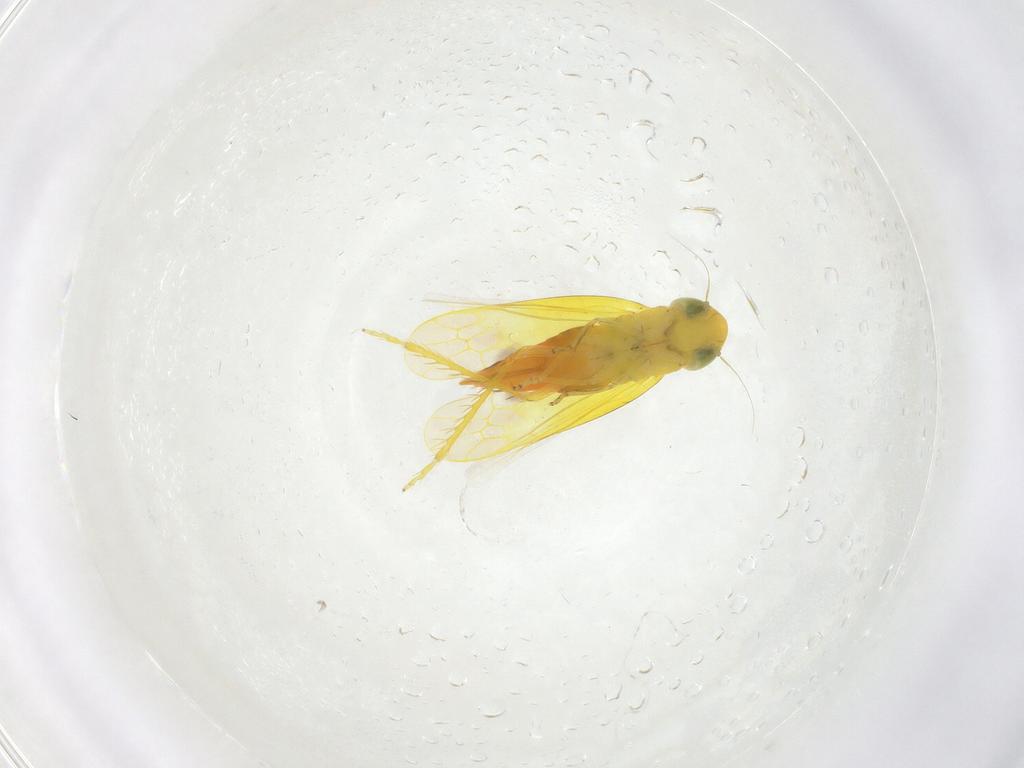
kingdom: Animalia
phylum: Arthropoda
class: Insecta
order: Hemiptera
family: Cicadellidae
